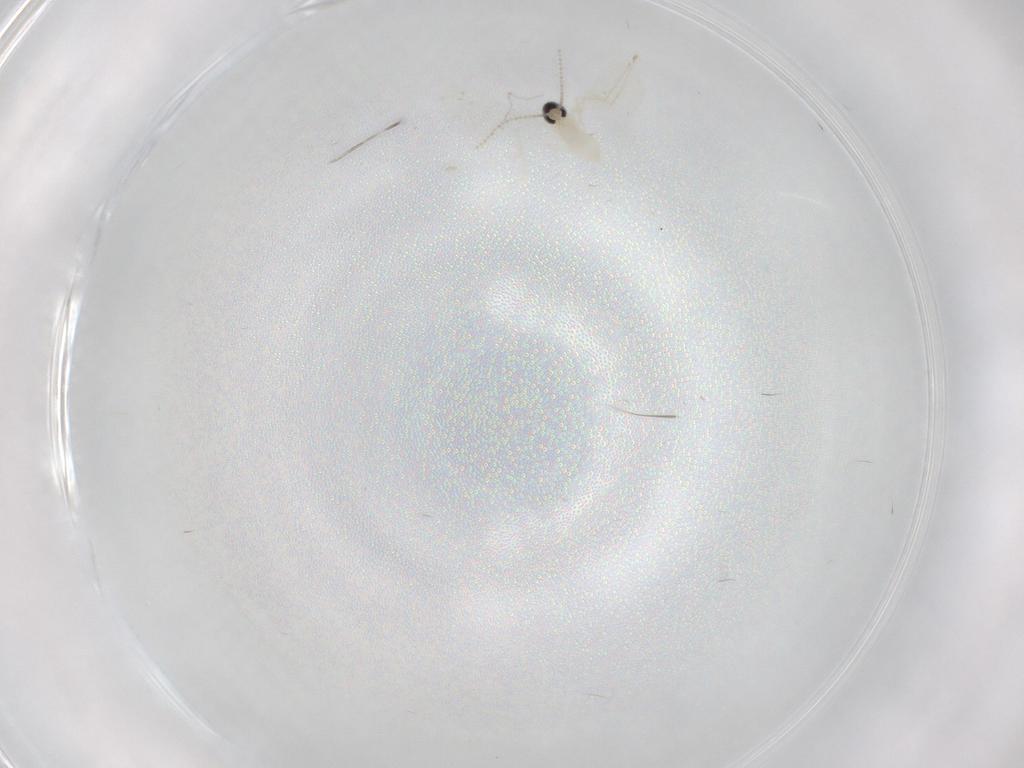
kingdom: Animalia
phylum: Arthropoda
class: Insecta
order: Diptera
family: Cecidomyiidae
